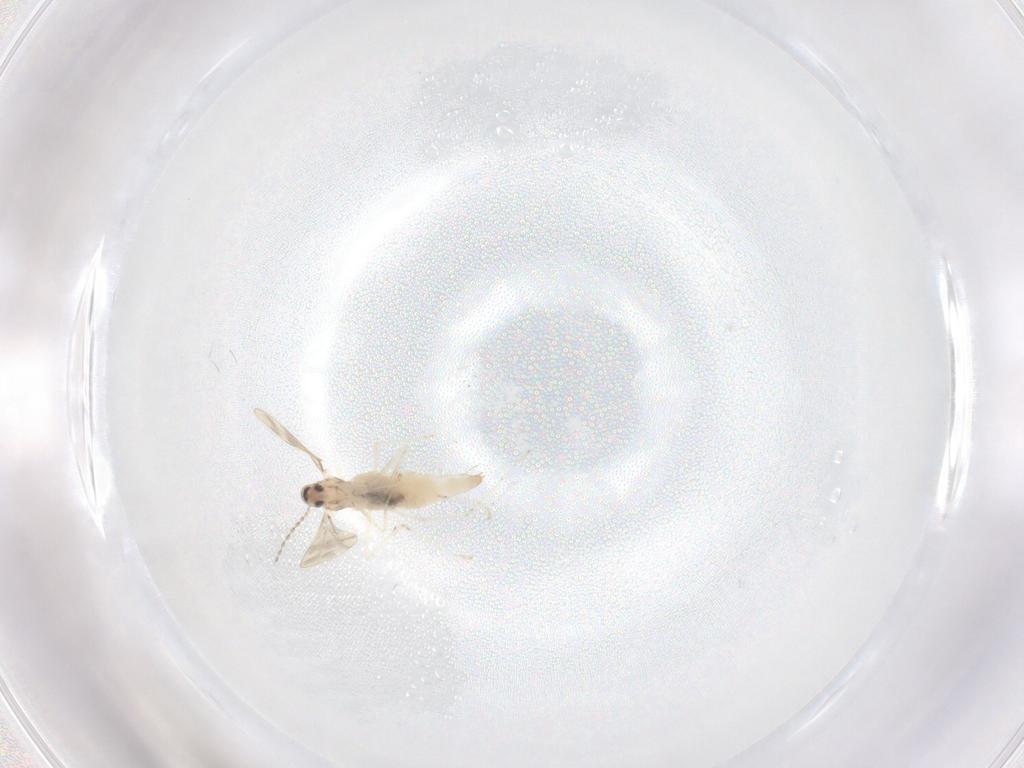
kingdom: Animalia
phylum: Arthropoda
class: Insecta
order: Diptera
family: Cecidomyiidae
